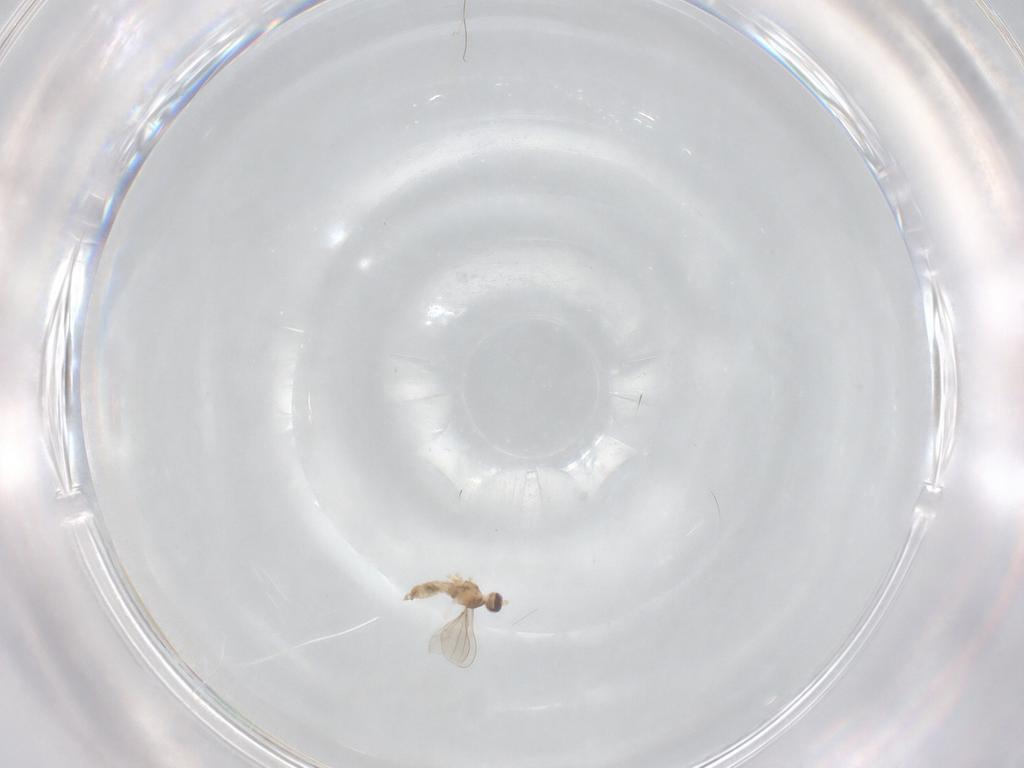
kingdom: Animalia
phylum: Arthropoda
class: Insecta
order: Diptera
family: Cecidomyiidae
